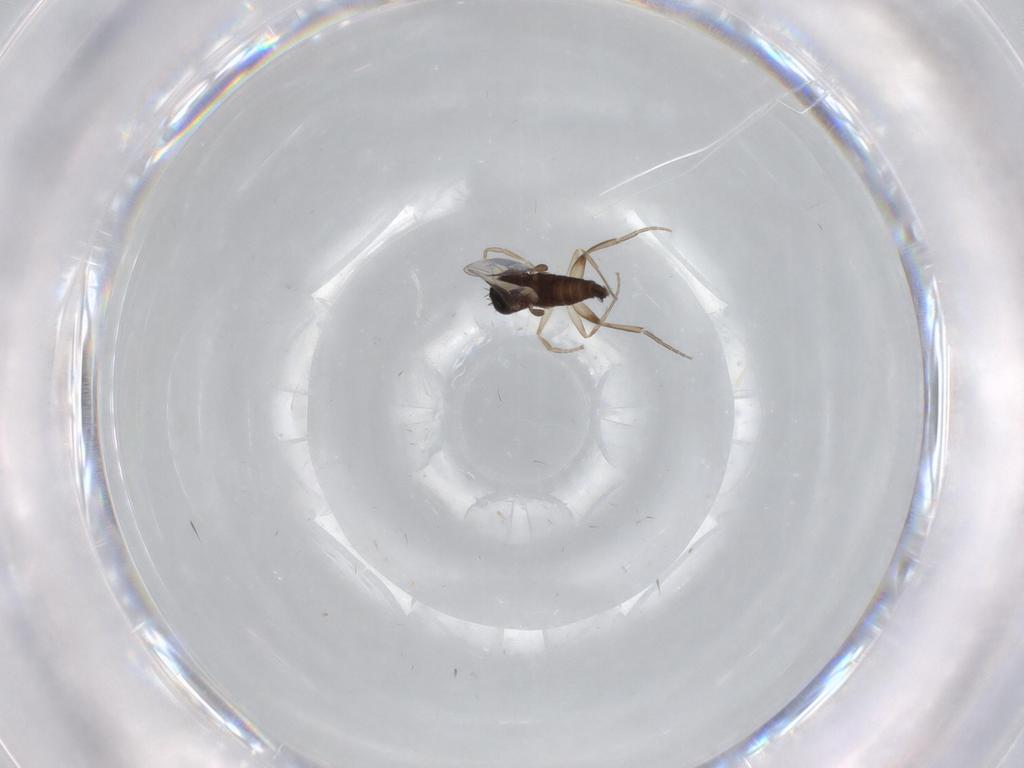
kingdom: Animalia
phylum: Arthropoda
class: Insecta
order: Diptera
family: Phoridae
